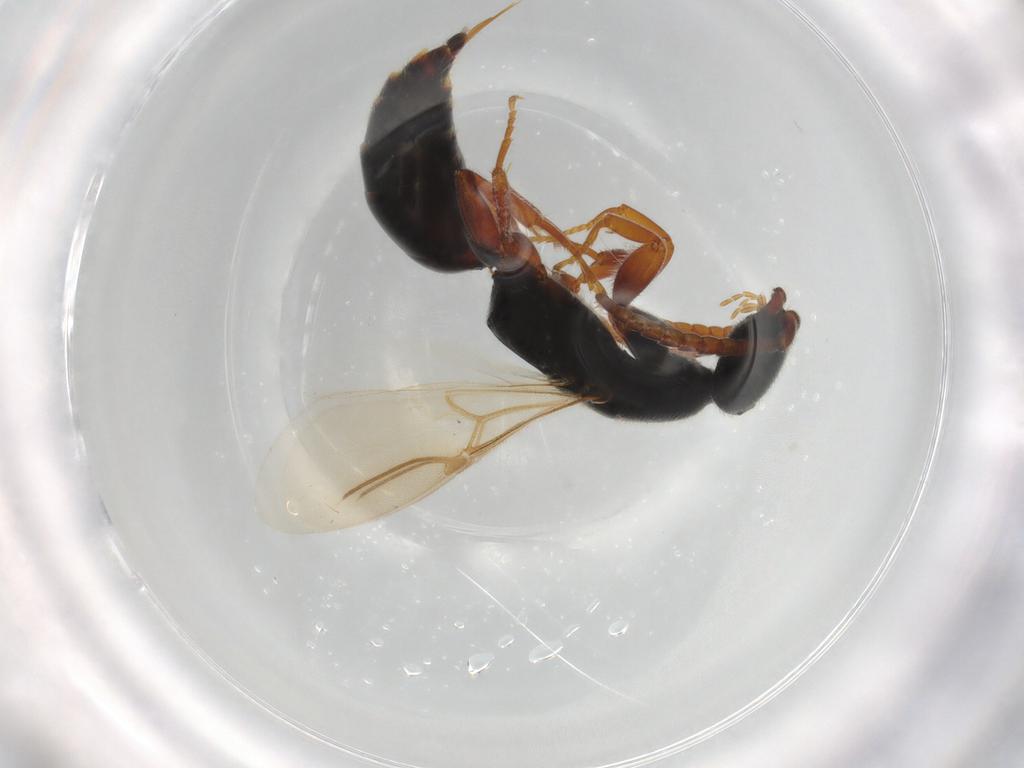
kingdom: Animalia
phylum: Arthropoda
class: Insecta
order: Hymenoptera
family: Bethylidae
